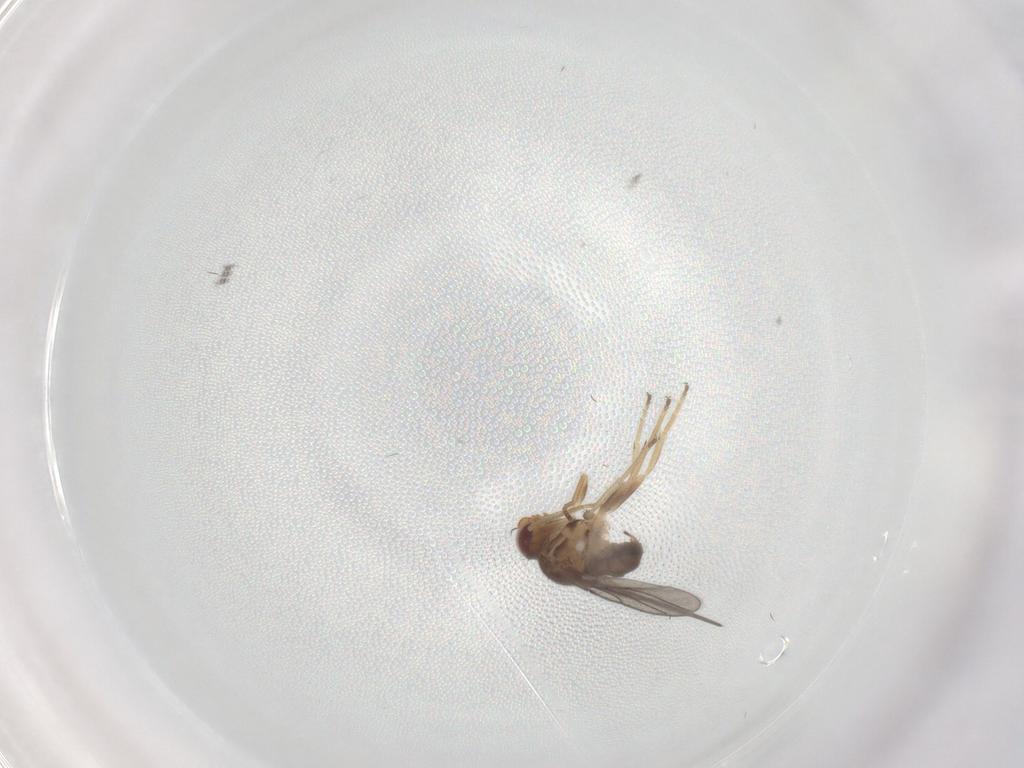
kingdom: Animalia
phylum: Arthropoda
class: Insecta
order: Diptera
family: Chloropidae
